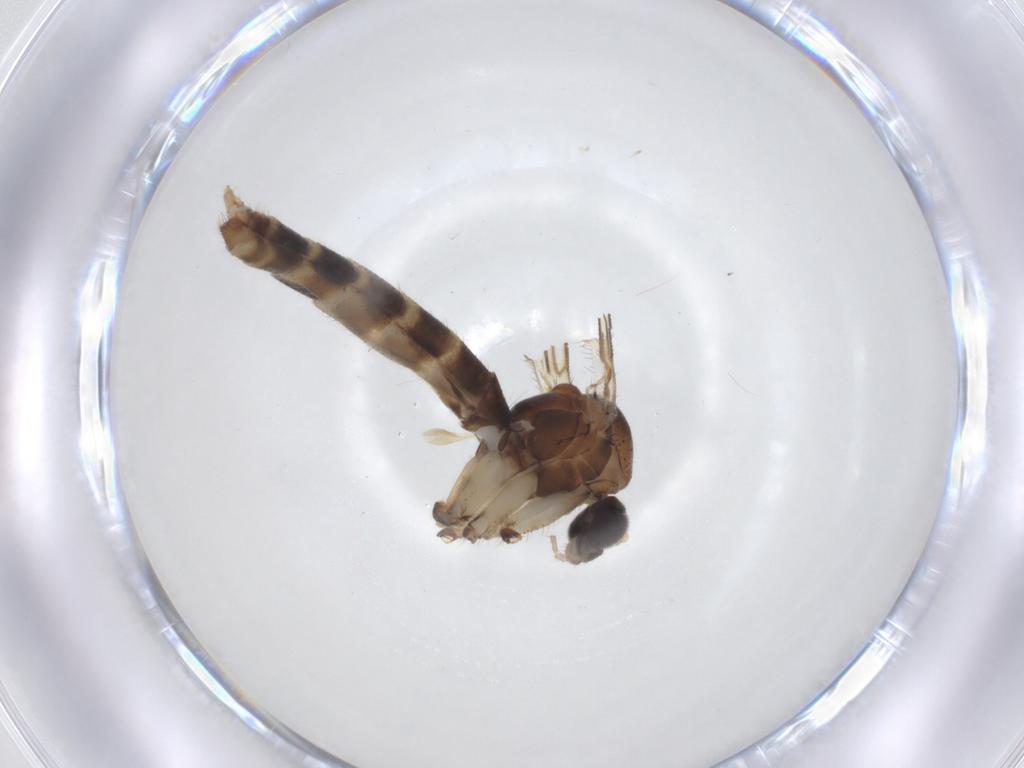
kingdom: Animalia
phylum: Arthropoda
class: Insecta
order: Diptera
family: Mycetophilidae
